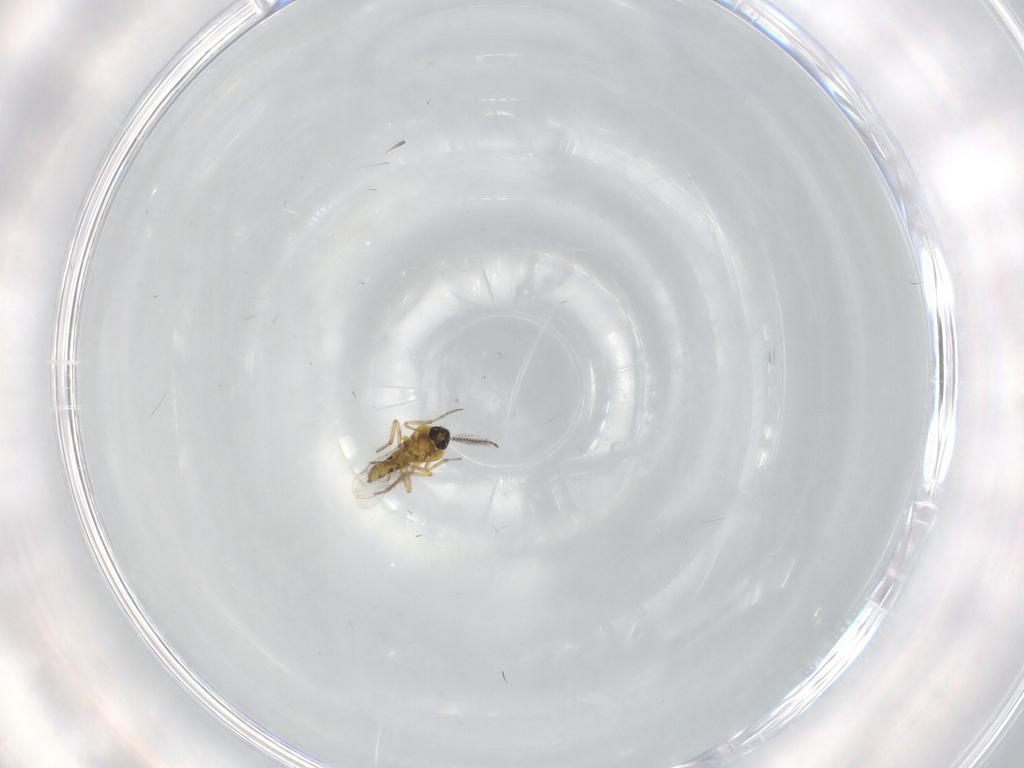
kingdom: Animalia
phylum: Arthropoda
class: Insecta
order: Diptera
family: Ceratopogonidae
